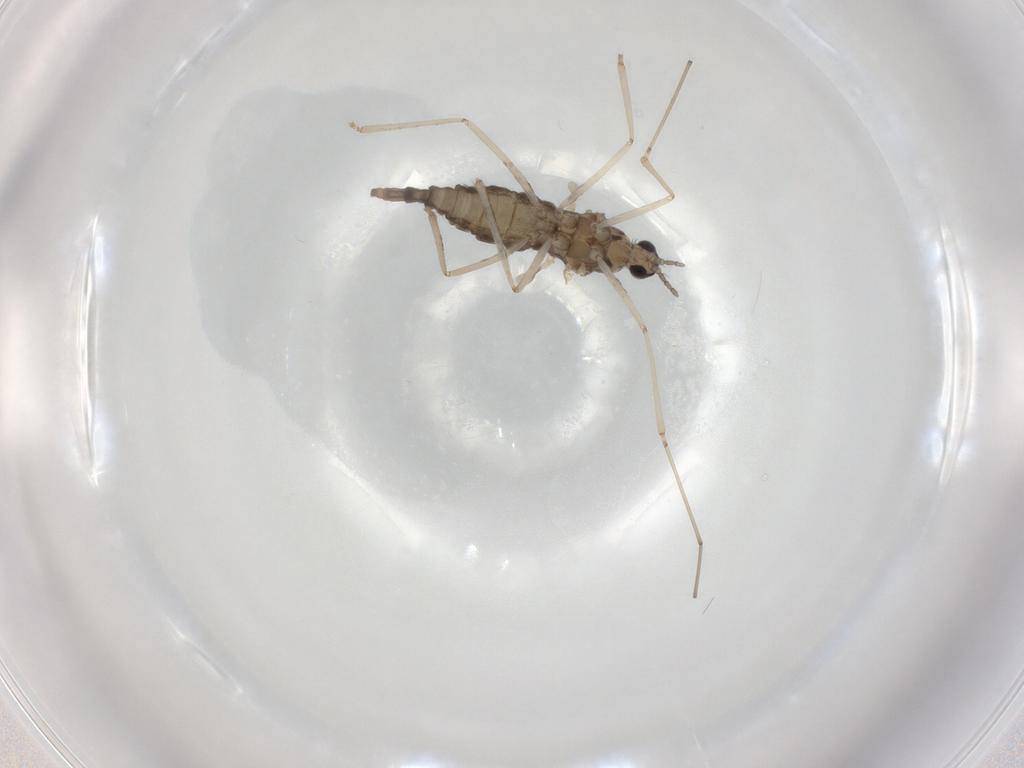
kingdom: Animalia
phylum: Arthropoda
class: Insecta
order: Diptera
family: Cecidomyiidae
